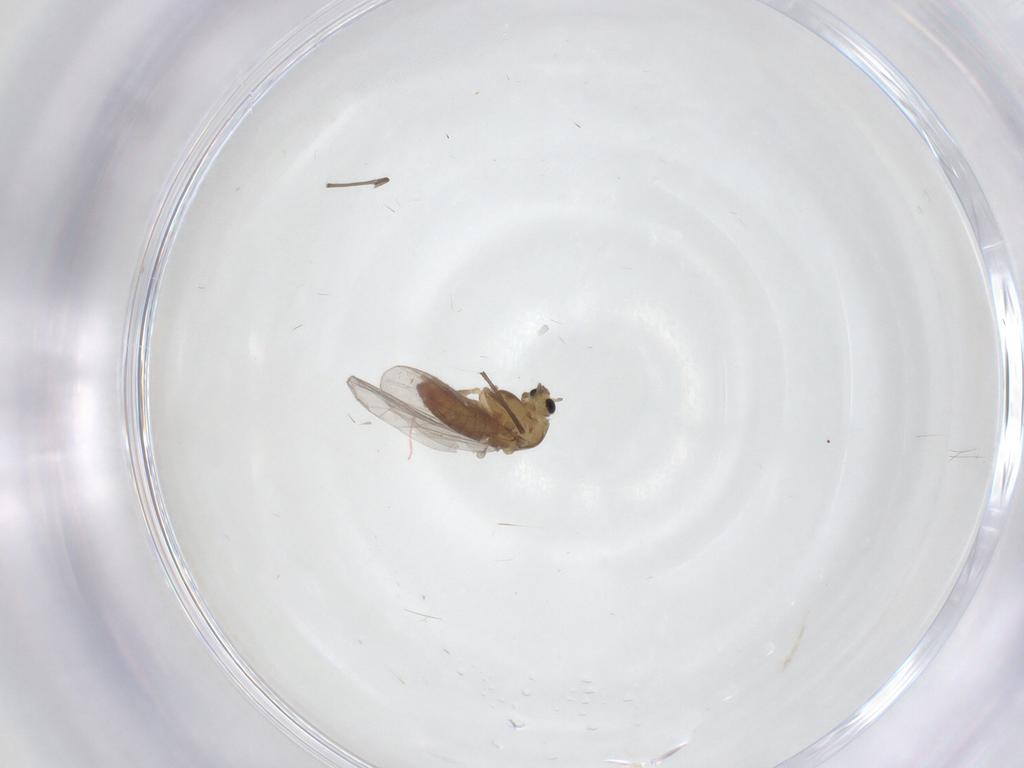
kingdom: Animalia
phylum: Arthropoda
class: Insecta
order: Diptera
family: Chironomidae
